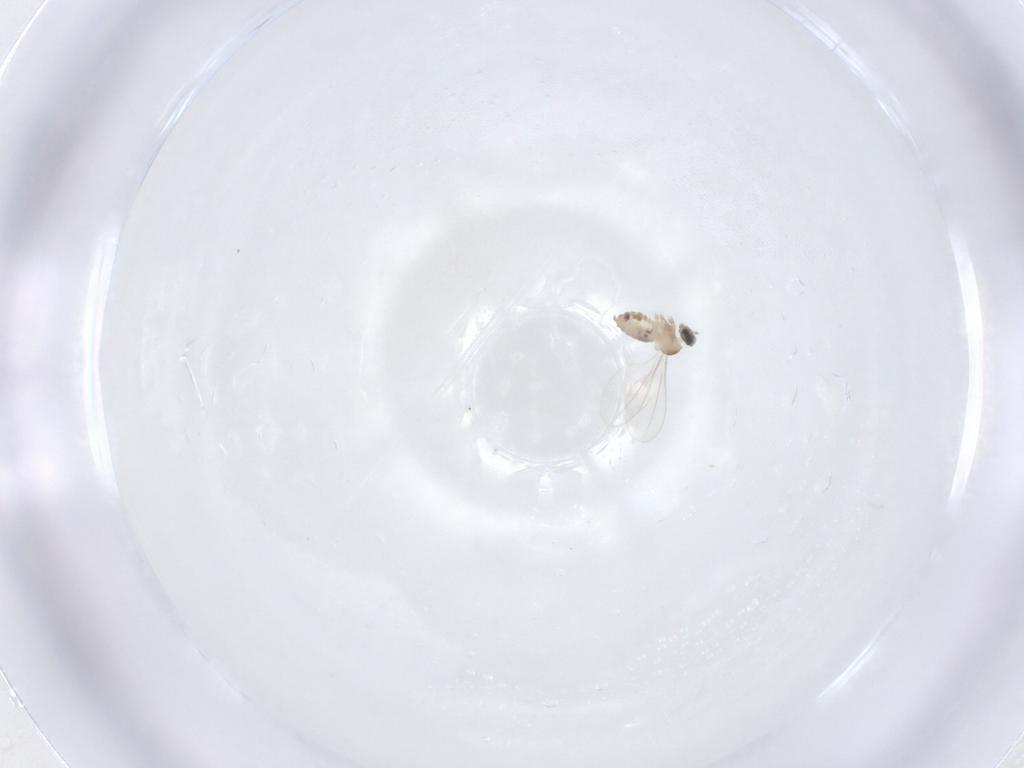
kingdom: Animalia
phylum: Arthropoda
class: Insecta
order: Diptera
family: Cecidomyiidae
